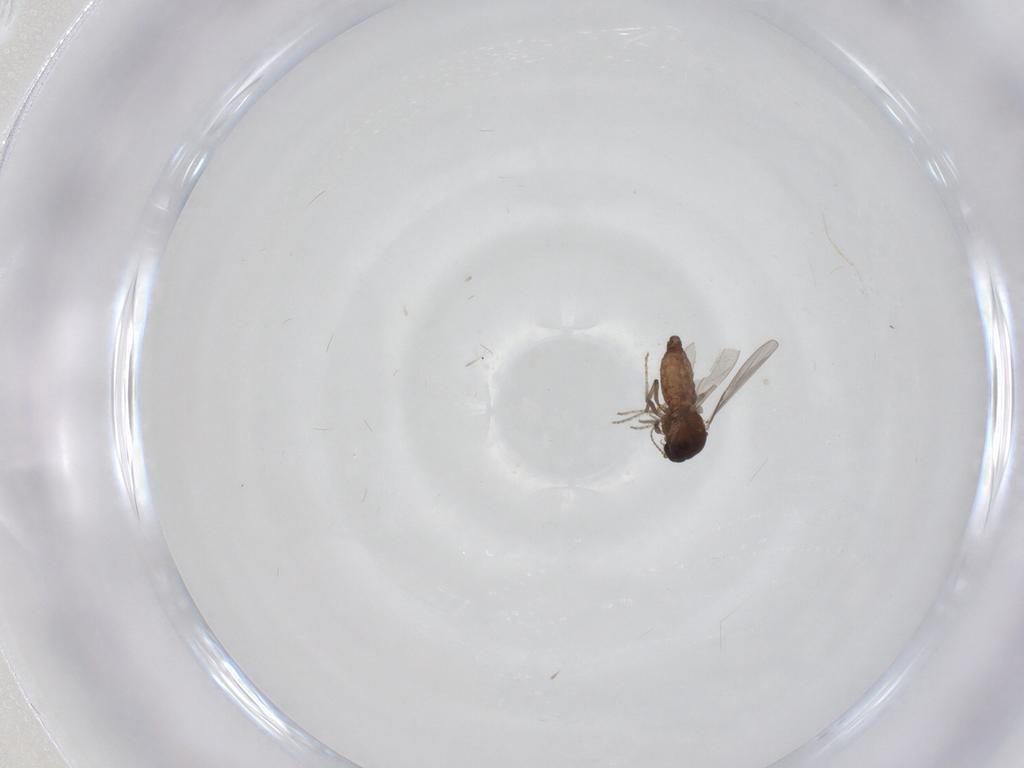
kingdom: Animalia
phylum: Arthropoda
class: Insecta
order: Diptera
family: Ceratopogonidae
